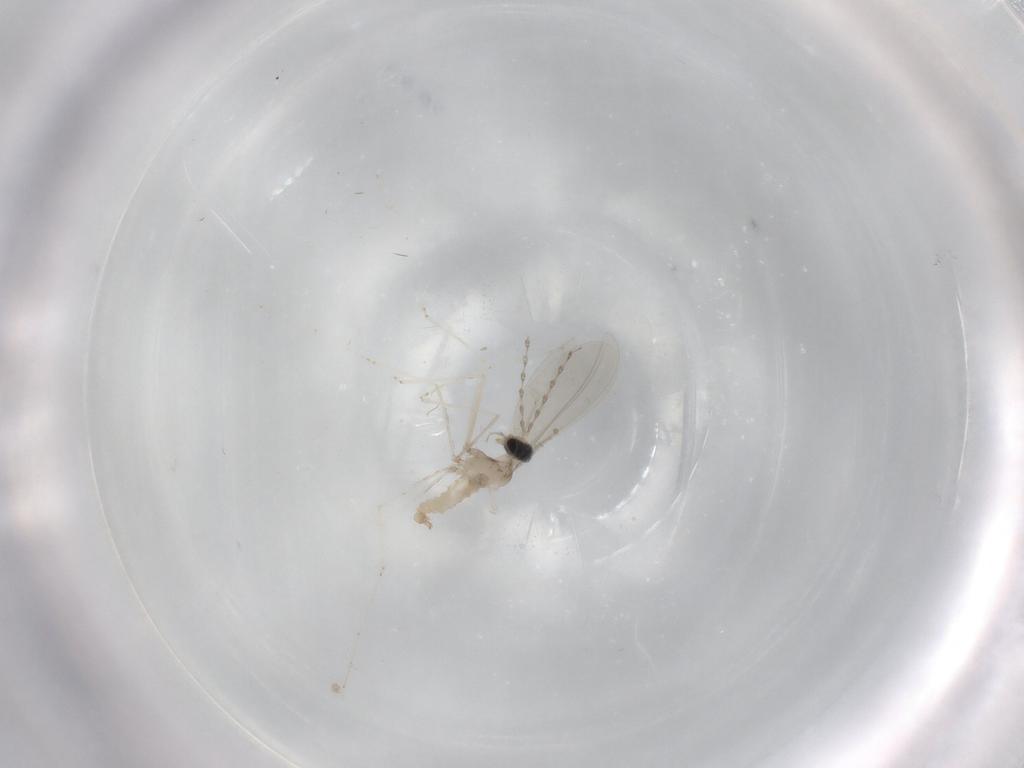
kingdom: Animalia
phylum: Arthropoda
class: Insecta
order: Diptera
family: Cecidomyiidae
